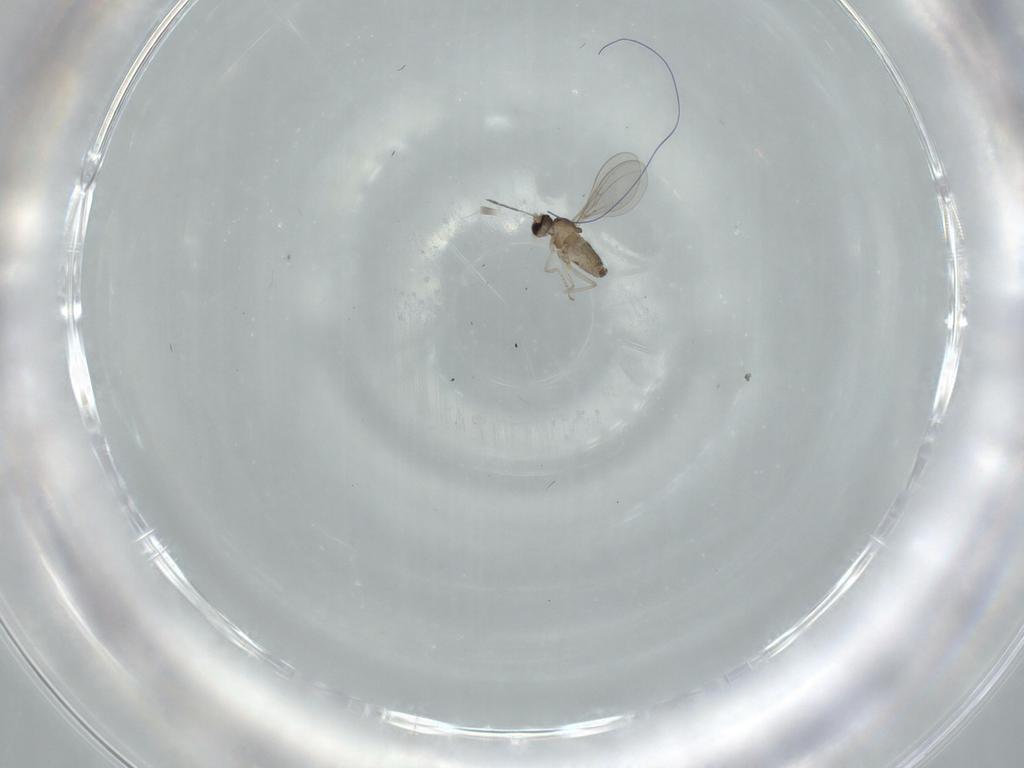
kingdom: Animalia
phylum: Arthropoda
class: Insecta
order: Diptera
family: Cecidomyiidae
